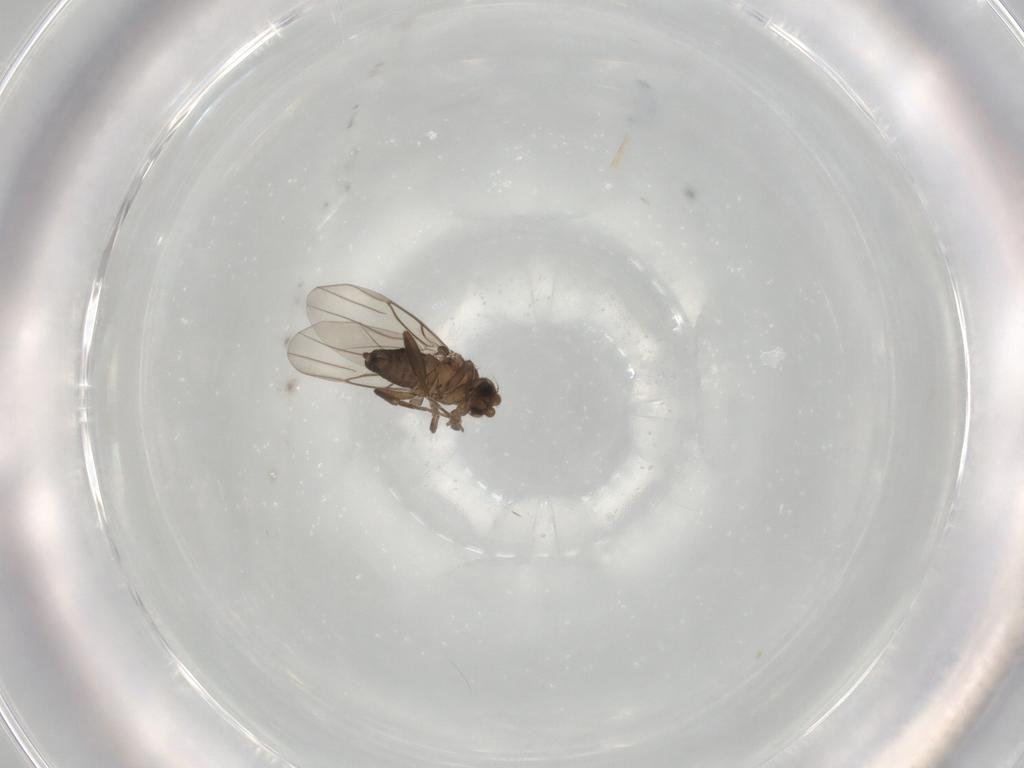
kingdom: Animalia
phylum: Arthropoda
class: Insecta
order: Diptera
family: Phoridae
